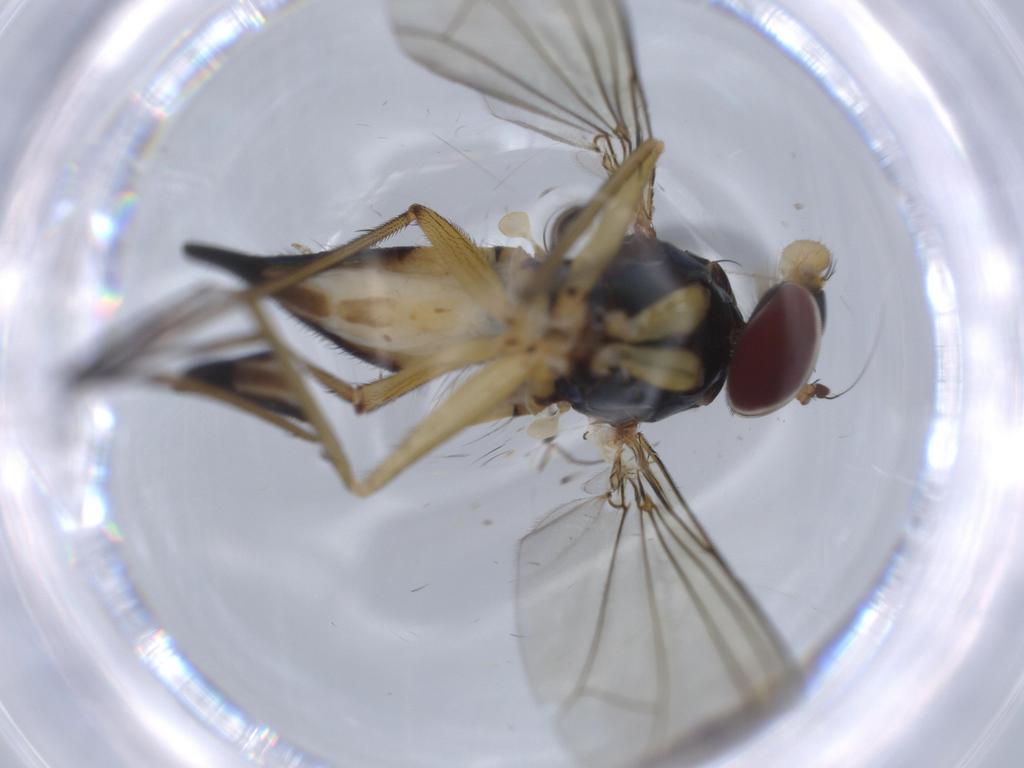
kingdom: Animalia
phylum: Arthropoda
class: Insecta
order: Diptera
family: Dolichopodidae
